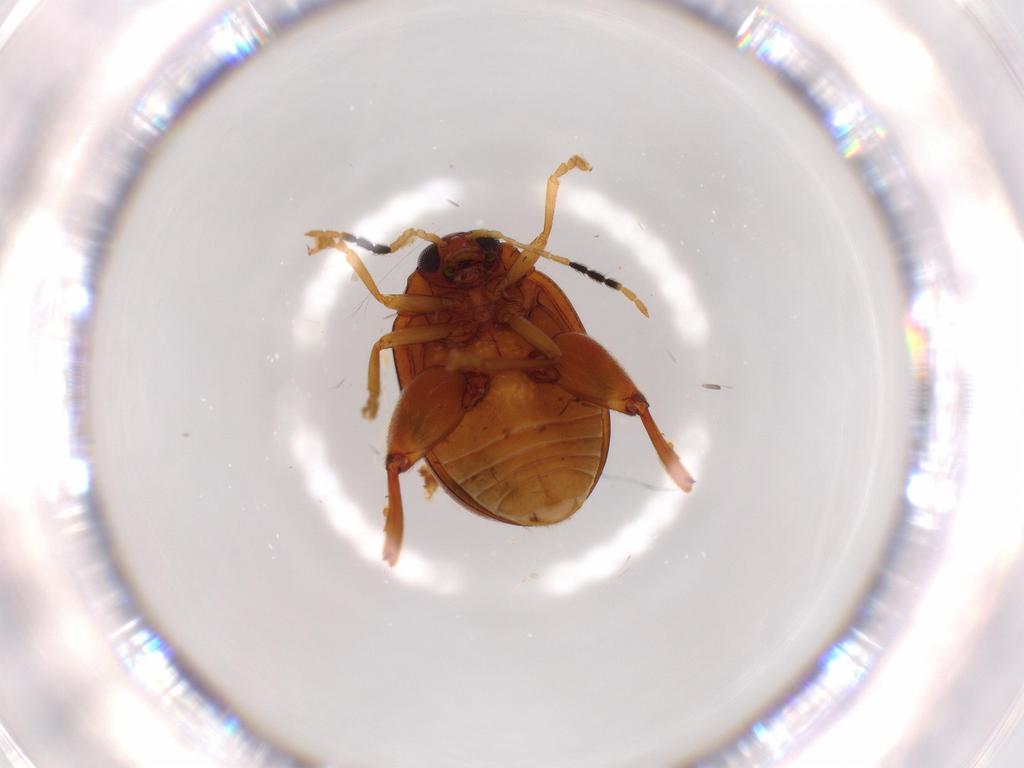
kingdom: Animalia
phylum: Arthropoda
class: Insecta
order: Coleoptera
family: Chrysomelidae
